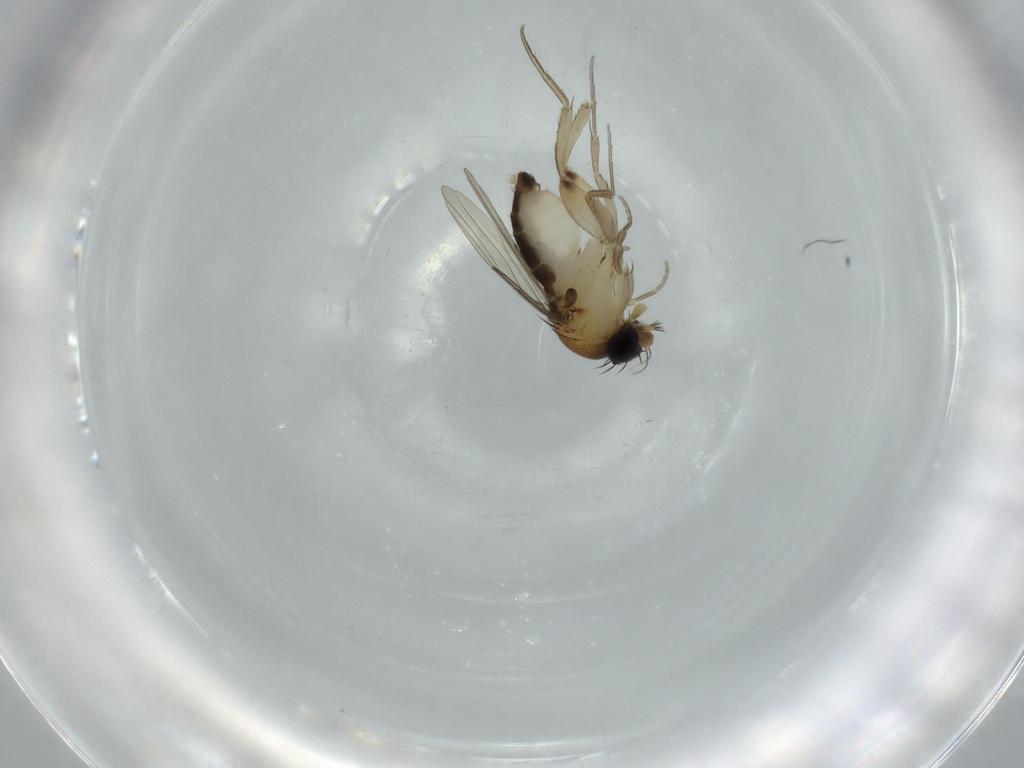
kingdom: Animalia
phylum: Arthropoda
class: Insecta
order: Diptera
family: Phoridae
